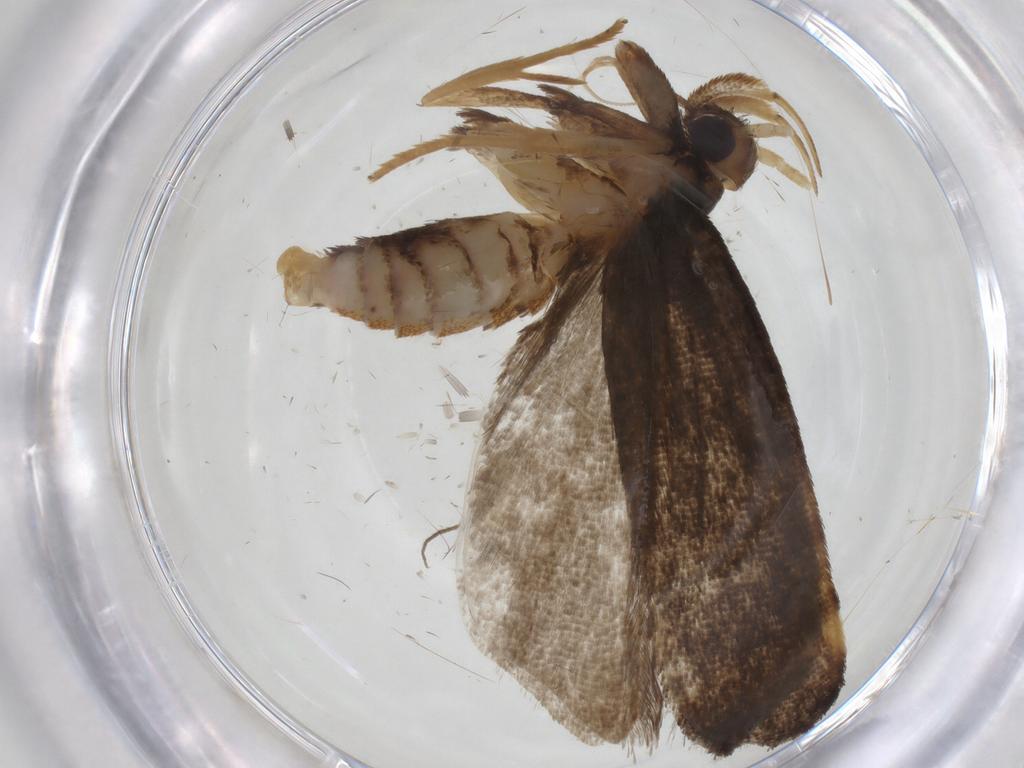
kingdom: Animalia
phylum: Arthropoda
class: Insecta
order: Lepidoptera
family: Lecithoceridae
